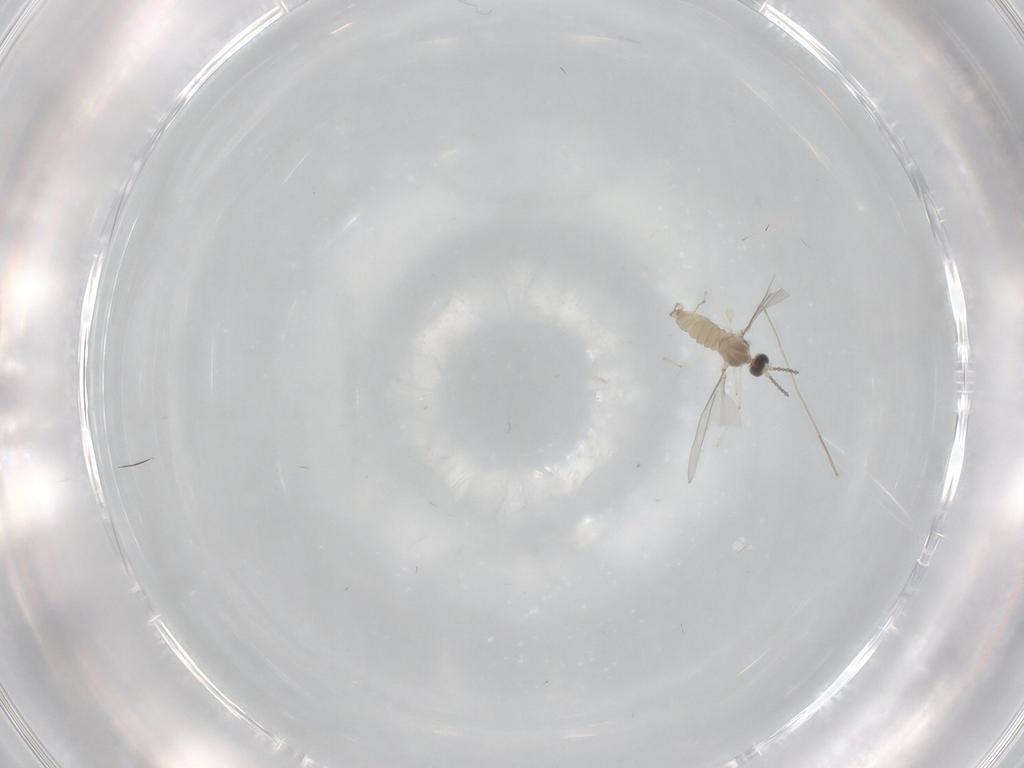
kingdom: Animalia
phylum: Arthropoda
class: Insecta
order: Diptera
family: Cecidomyiidae
